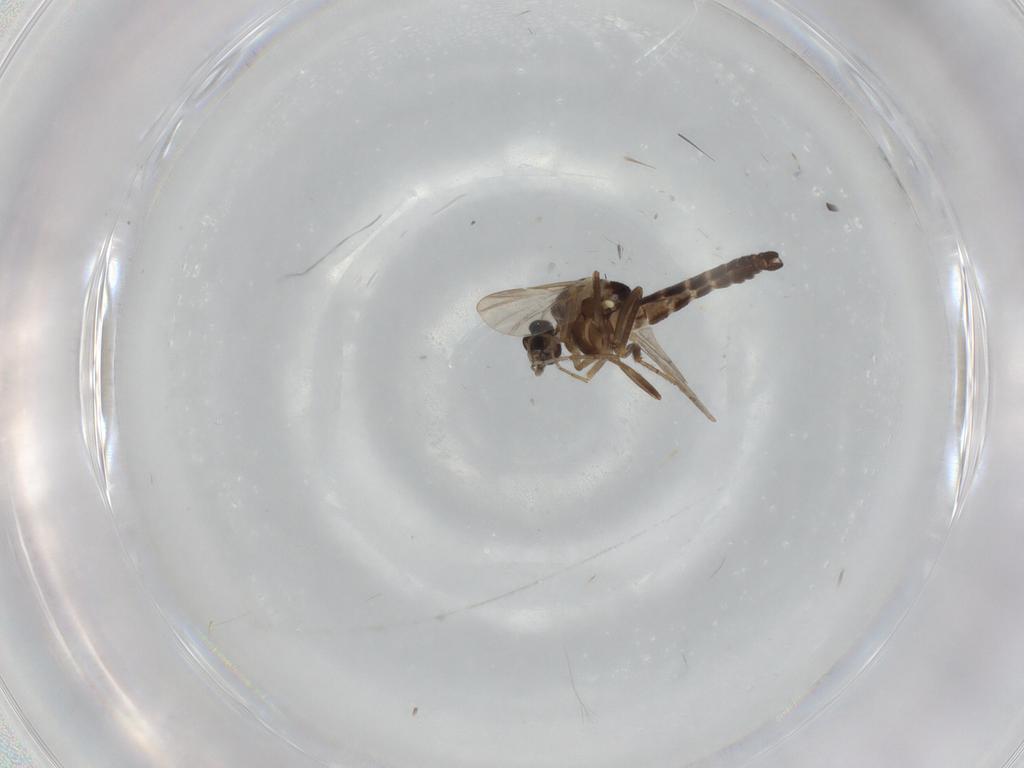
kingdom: Animalia
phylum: Arthropoda
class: Insecta
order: Diptera
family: Ceratopogonidae
